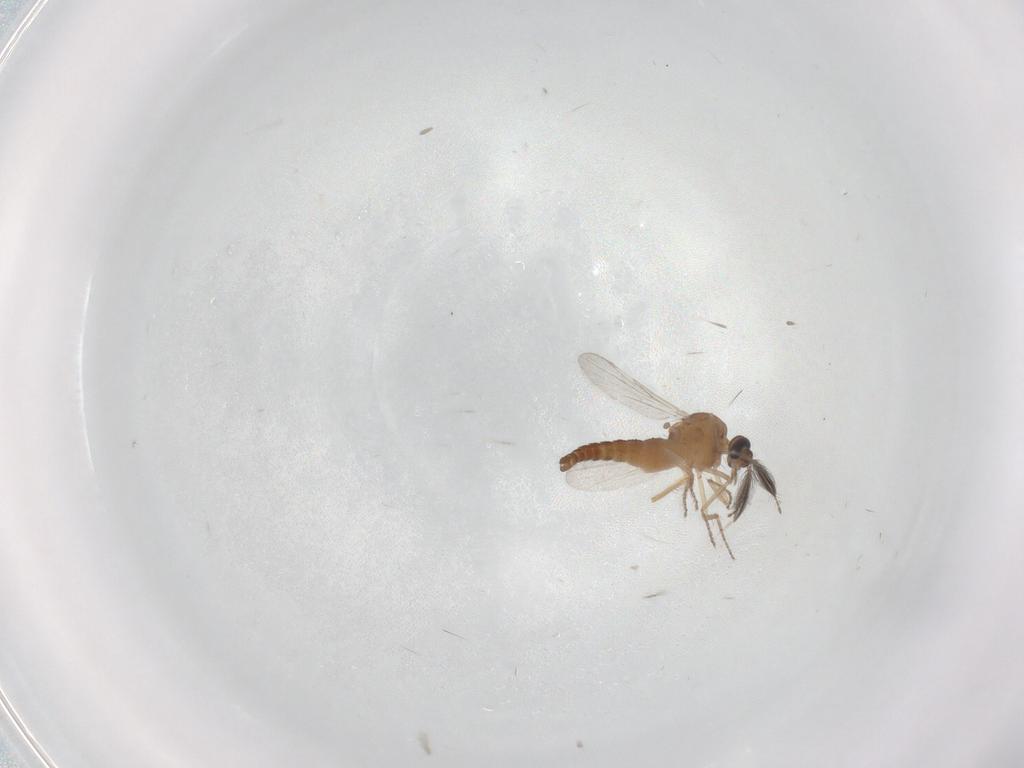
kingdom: Animalia
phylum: Arthropoda
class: Insecta
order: Diptera
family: Ceratopogonidae
